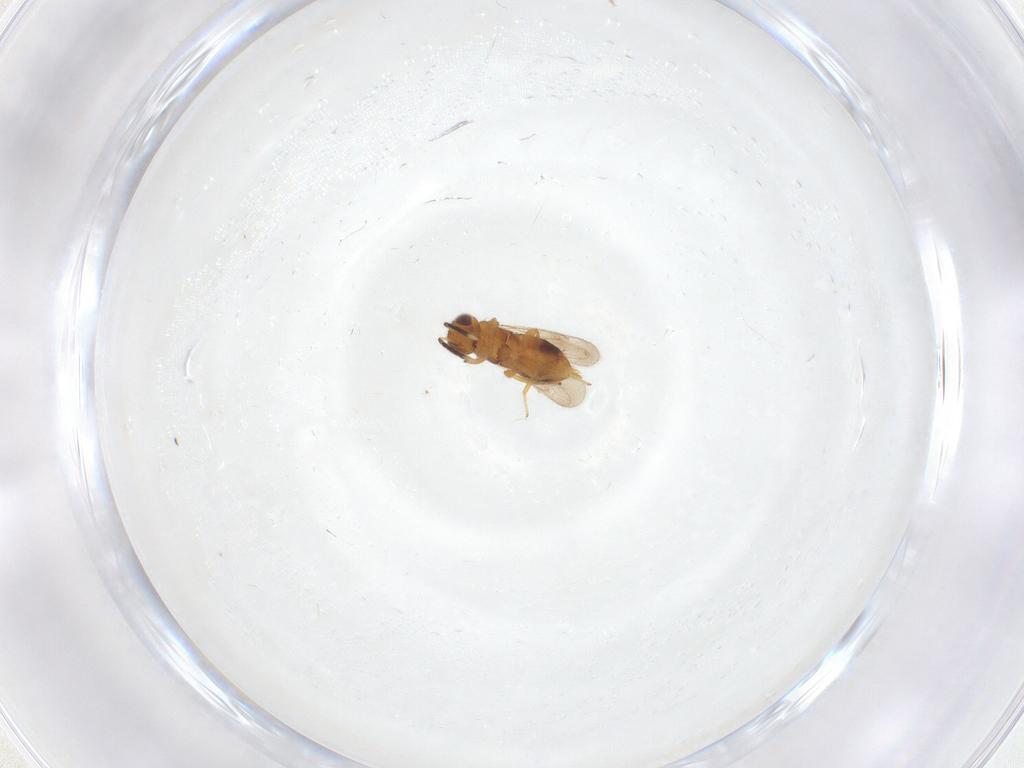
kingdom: Animalia
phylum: Arthropoda
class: Insecta
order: Hymenoptera
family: Aphelinidae
